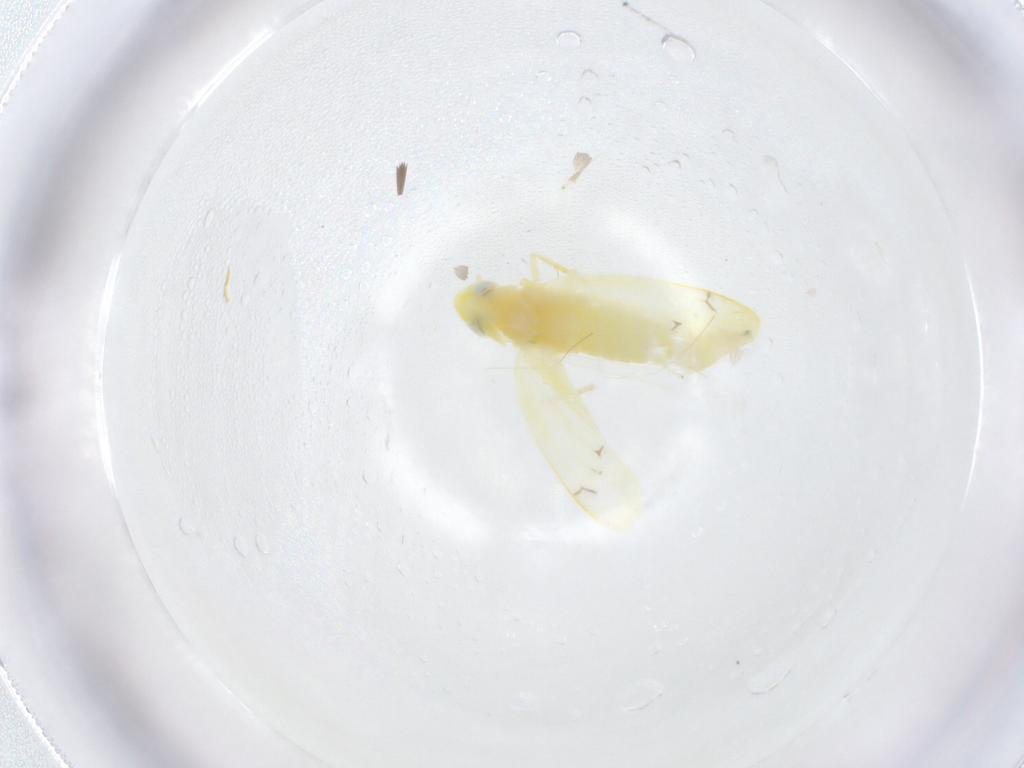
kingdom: Animalia
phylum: Arthropoda
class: Insecta
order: Hemiptera
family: Cicadellidae
